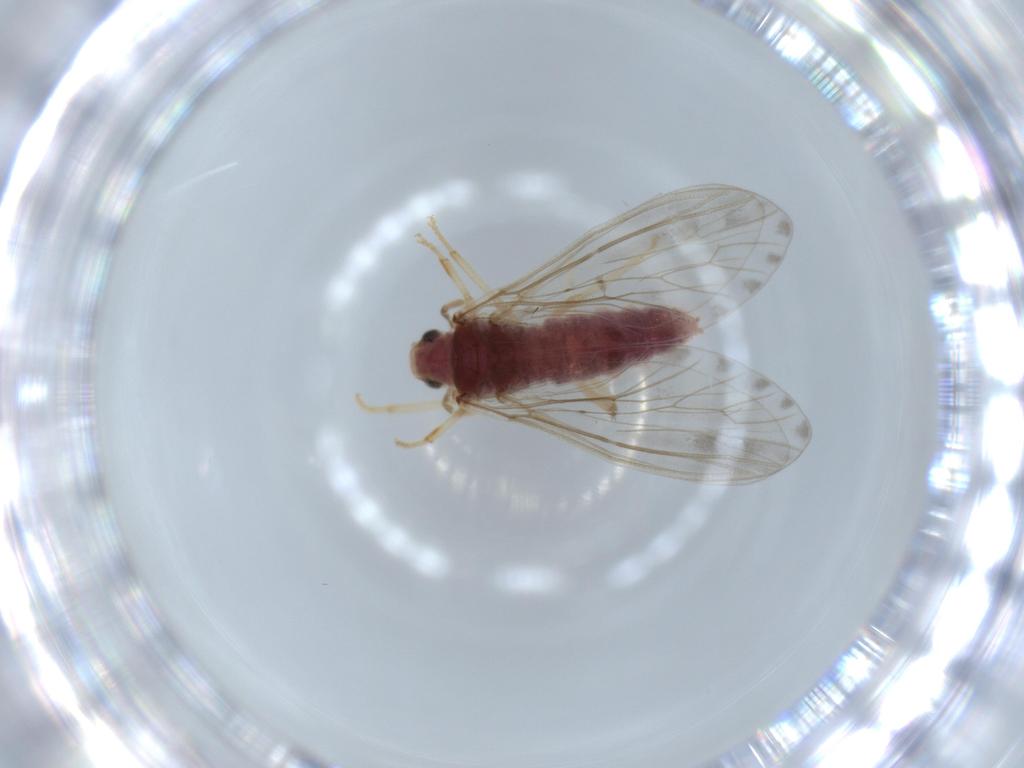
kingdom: Animalia
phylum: Arthropoda
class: Insecta
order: Neuroptera
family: Coniopterygidae
